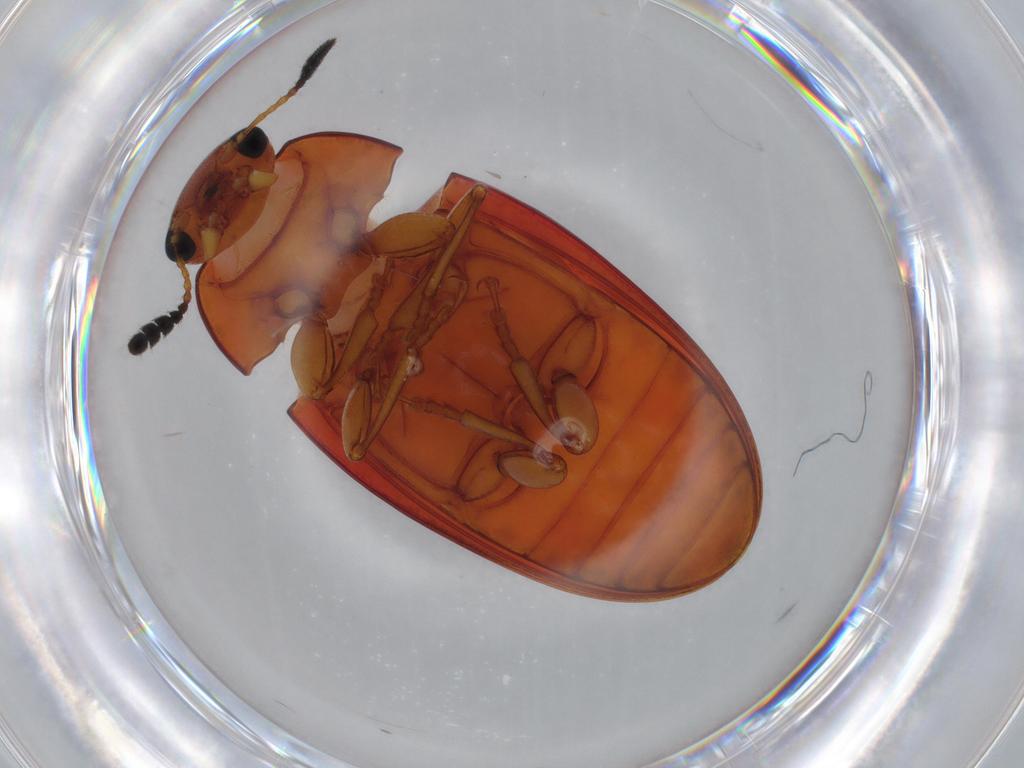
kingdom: Animalia
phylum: Arthropoda
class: Insecta
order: Coleoptera
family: Erotylidae
